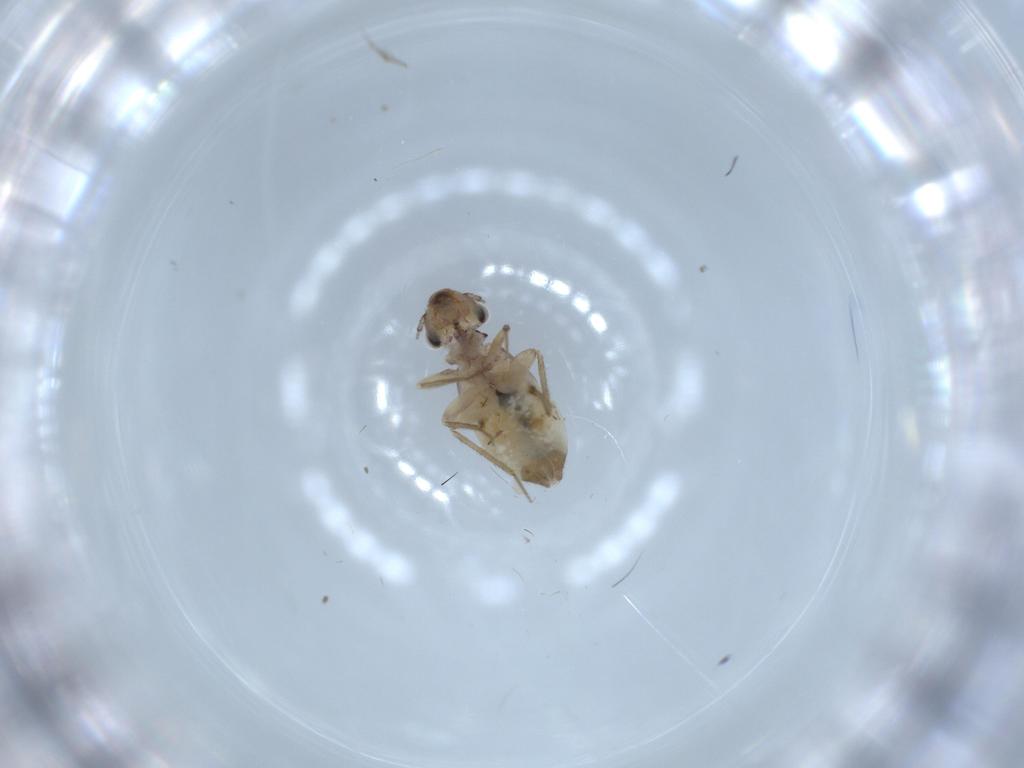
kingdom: Animalia
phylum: Arthropoda
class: Insecta
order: Psocodea
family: Lepidopsocidae
